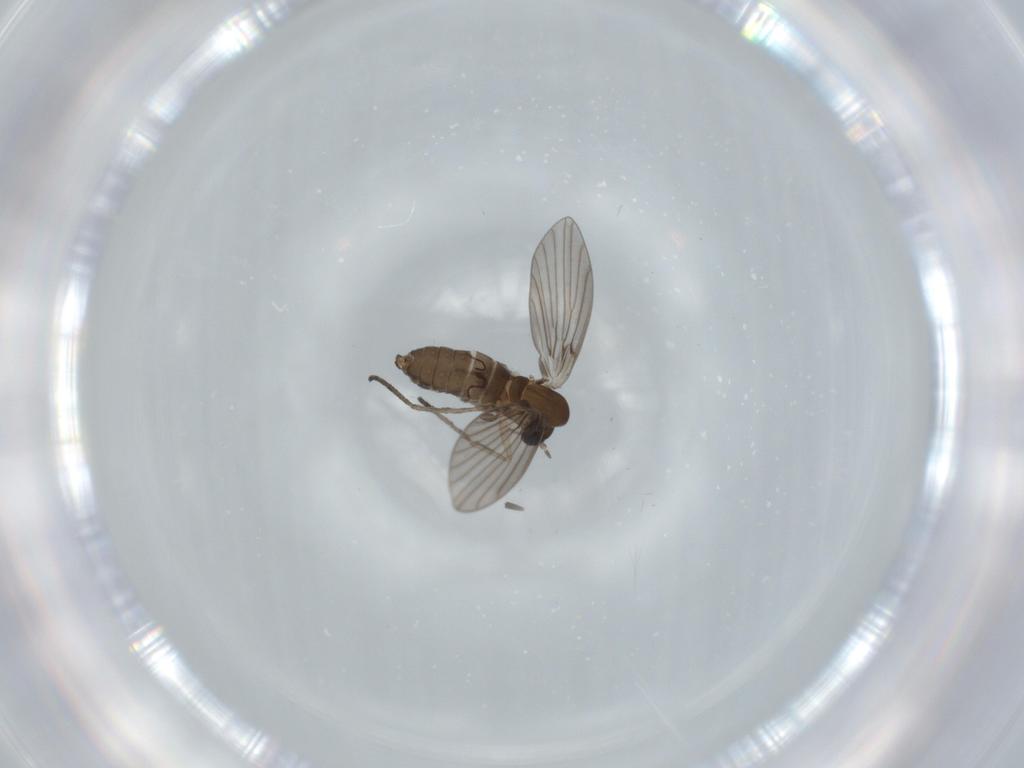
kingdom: Animalia
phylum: Arthropoda
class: Insecta
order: Diptera
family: Psychodidae
